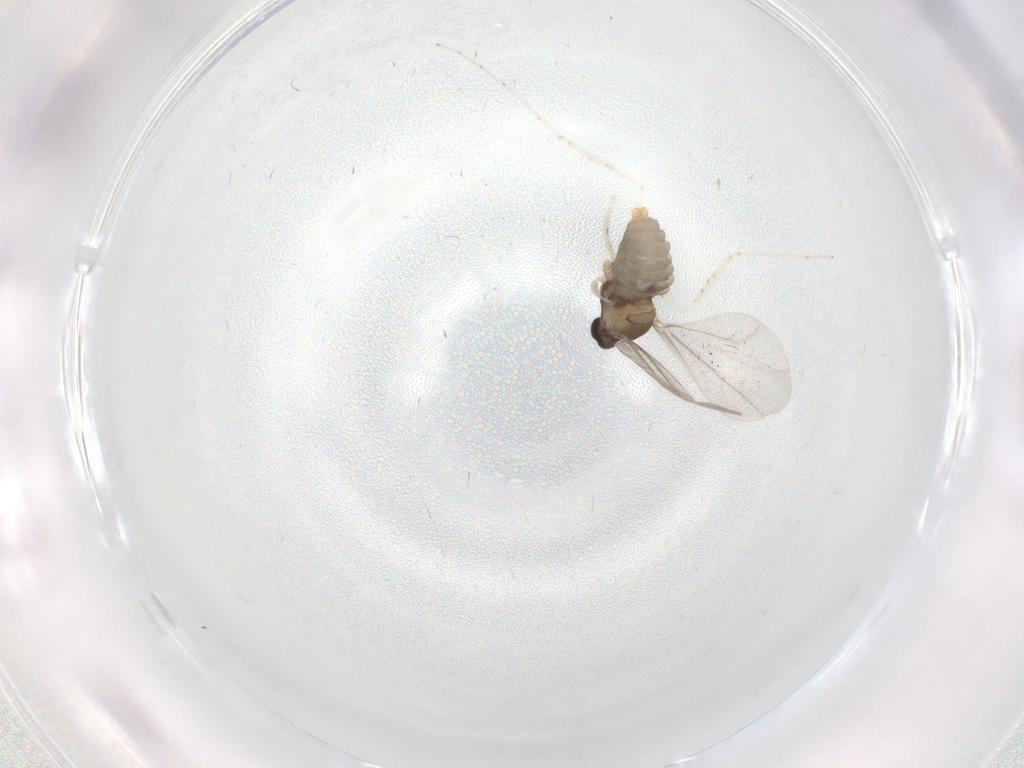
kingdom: Animalia
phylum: Arthropoda
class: Insecta
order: Diptera
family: Cecidomyiidae
